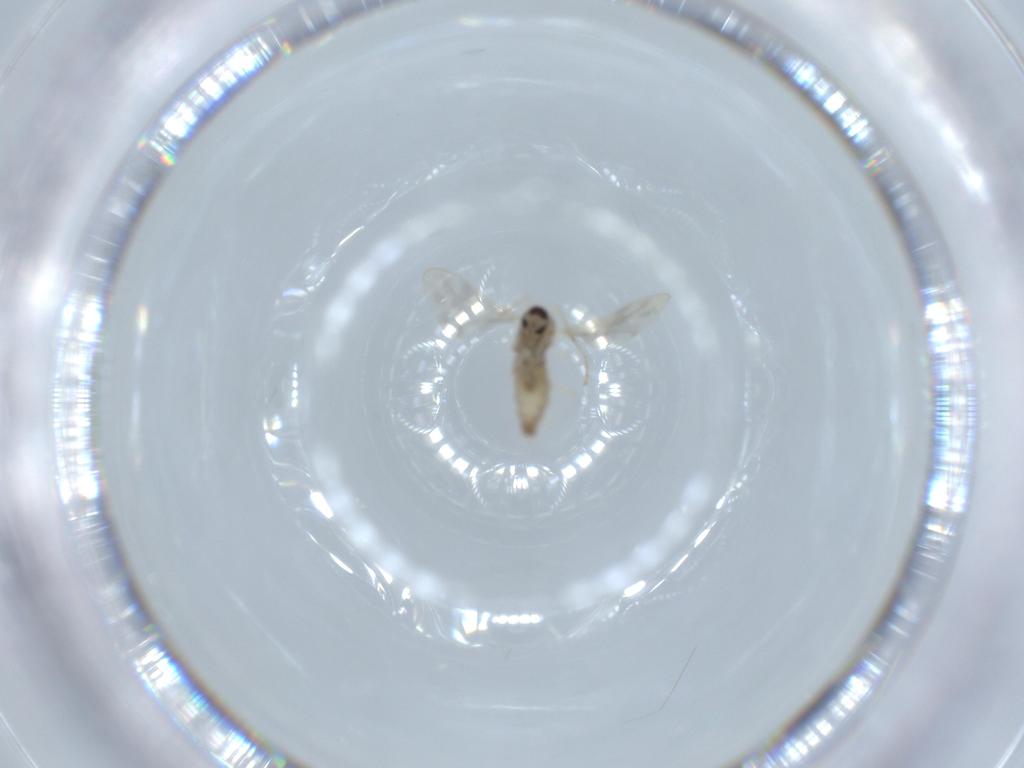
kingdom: Animalia
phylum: Arthropoda
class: Insecta
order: Diptera
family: Cecidomyiidae
